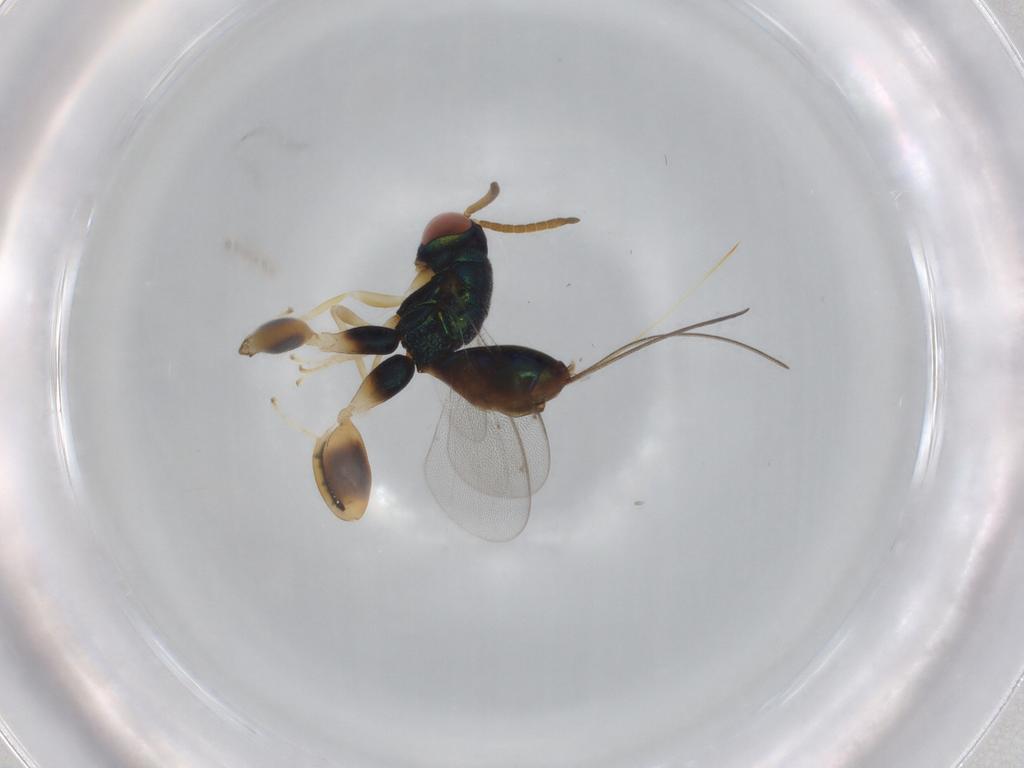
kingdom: Animalia
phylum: Arthropoda
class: Insecta
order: Hymenoptera
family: Torymidae
